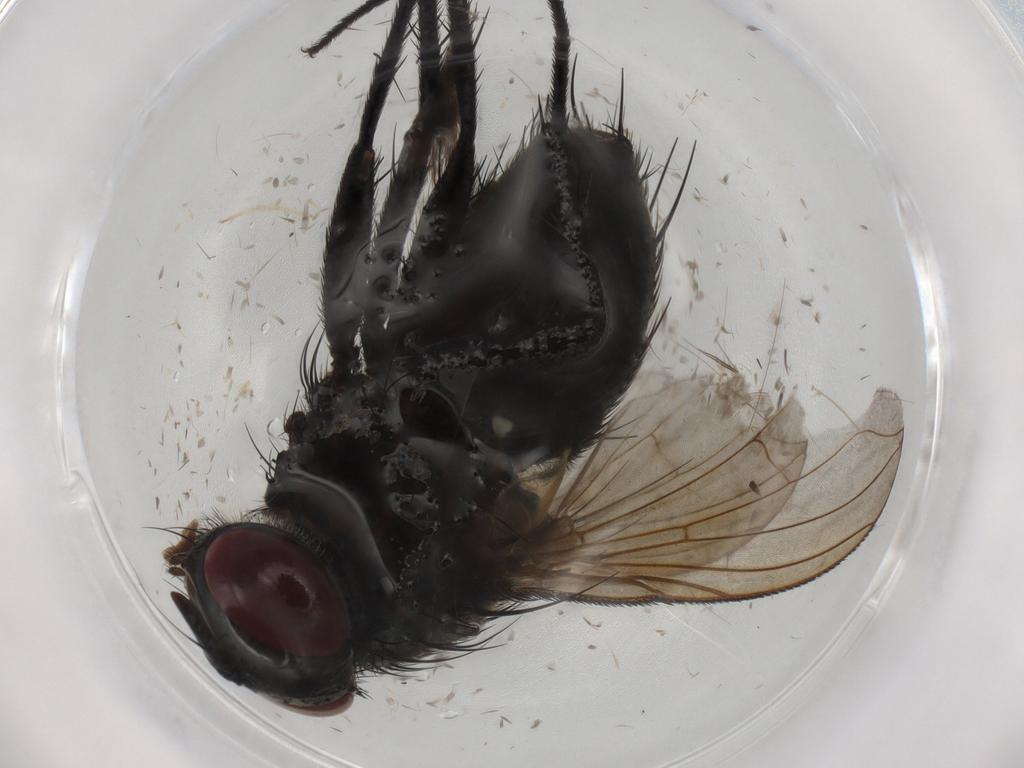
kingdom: Animalia
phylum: Arthropoda
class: Insecta
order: Diptera
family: Tachinidae
